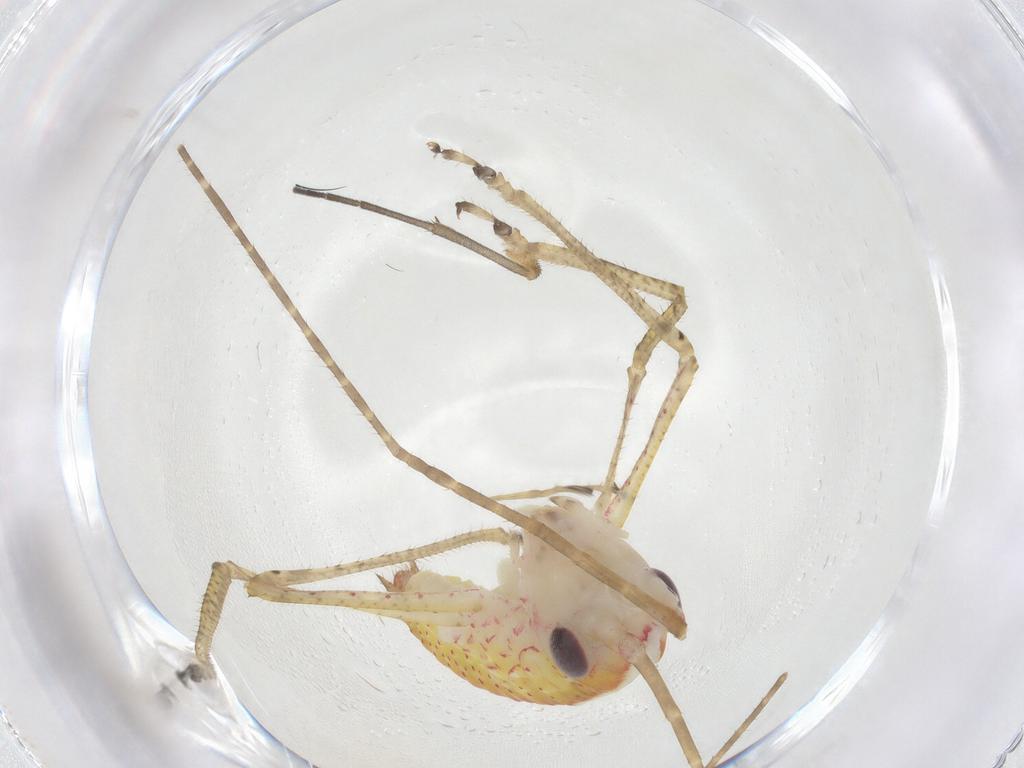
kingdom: Animalia
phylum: Arthropoda
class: Insecta
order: Orthoptera
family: Tettigoniidae
